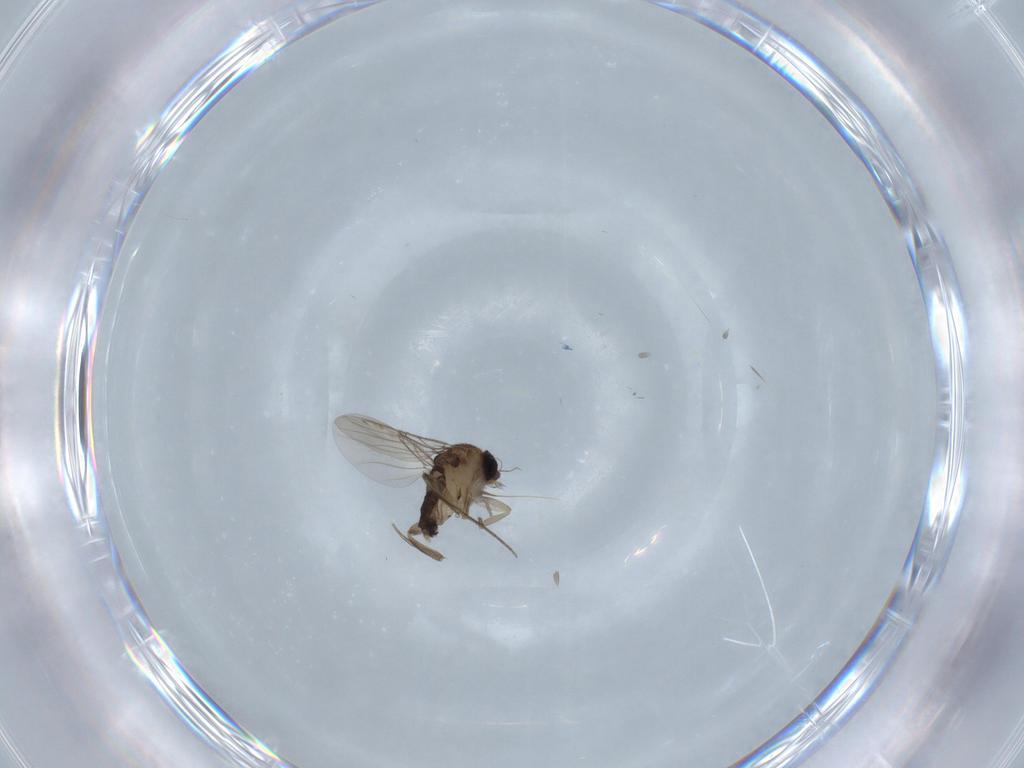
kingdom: Animalia
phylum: Arthropoda
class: Insecta
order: Diptera
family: Phoridae
